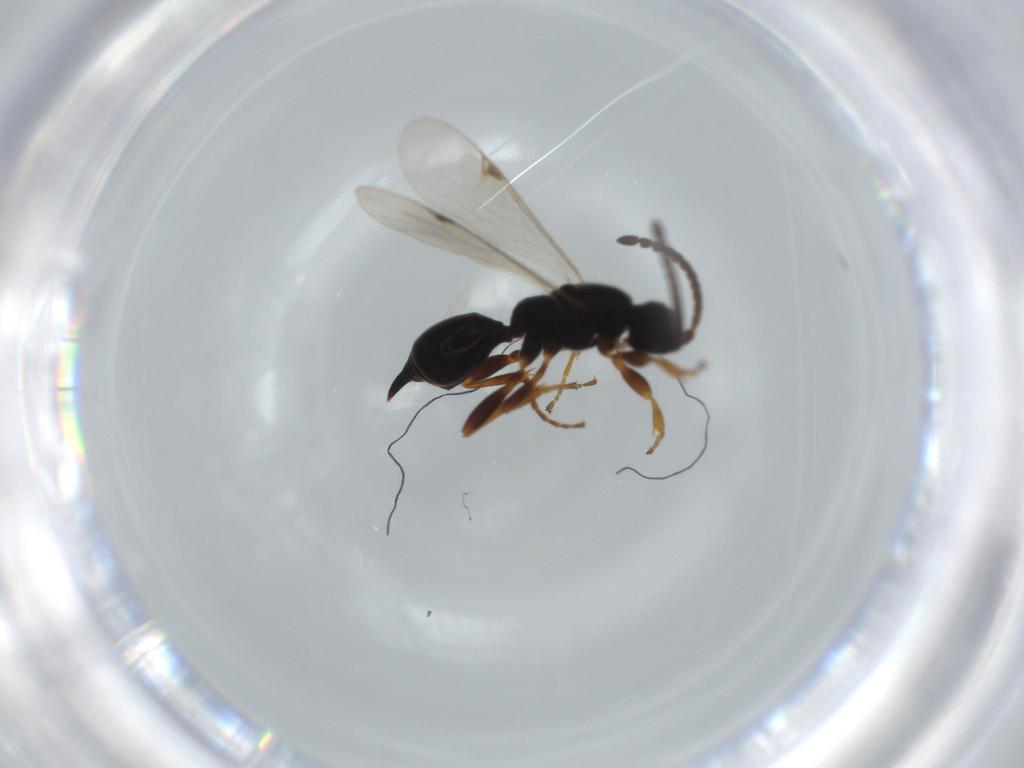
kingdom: Animalia
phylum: Arthropoda
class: Insecta
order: Hymenoptera
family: Proctotrupidae
